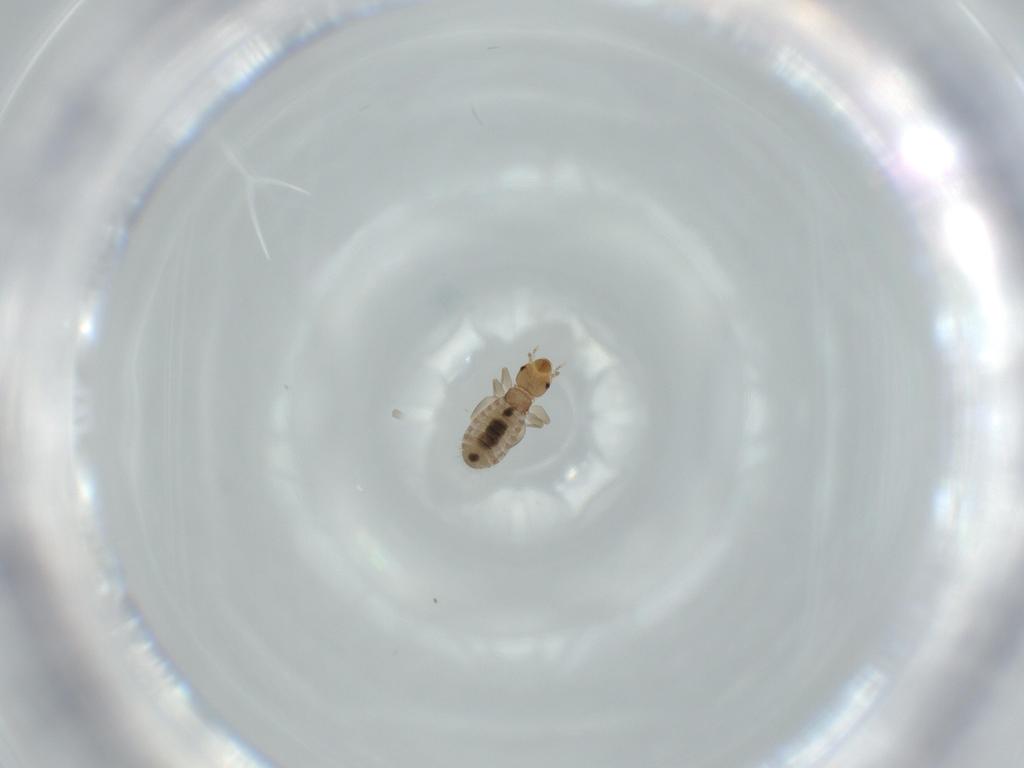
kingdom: Animalia
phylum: Arthropoda
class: Insecta
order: Psocodea
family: Liposcelididae
